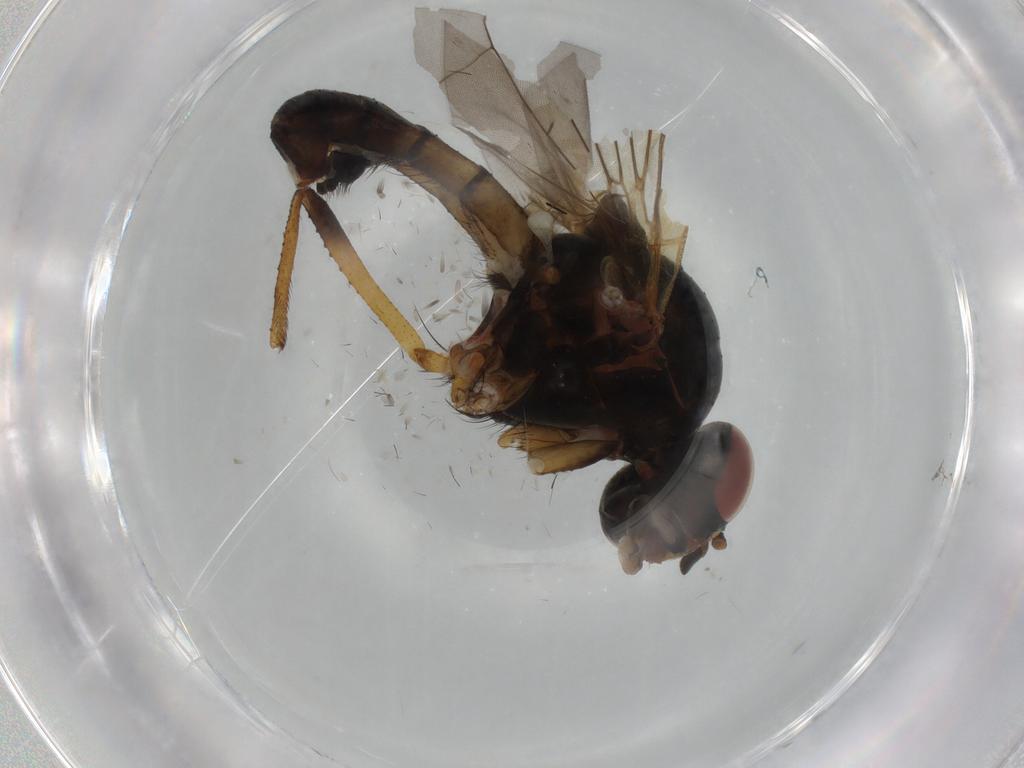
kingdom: Animalia
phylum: Arthropoda
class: Insecta
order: Diptera
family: Anthomyiidae
